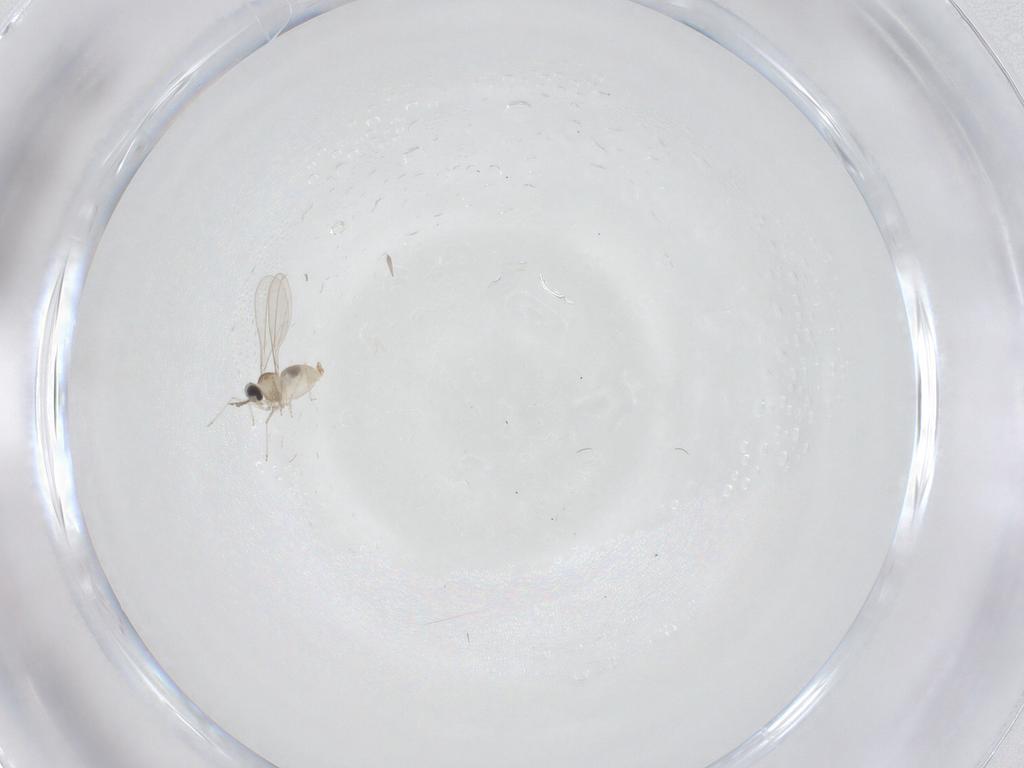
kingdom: Animalia
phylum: Arthropoda
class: Insecta
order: Diptera
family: Cecidomyiidae
